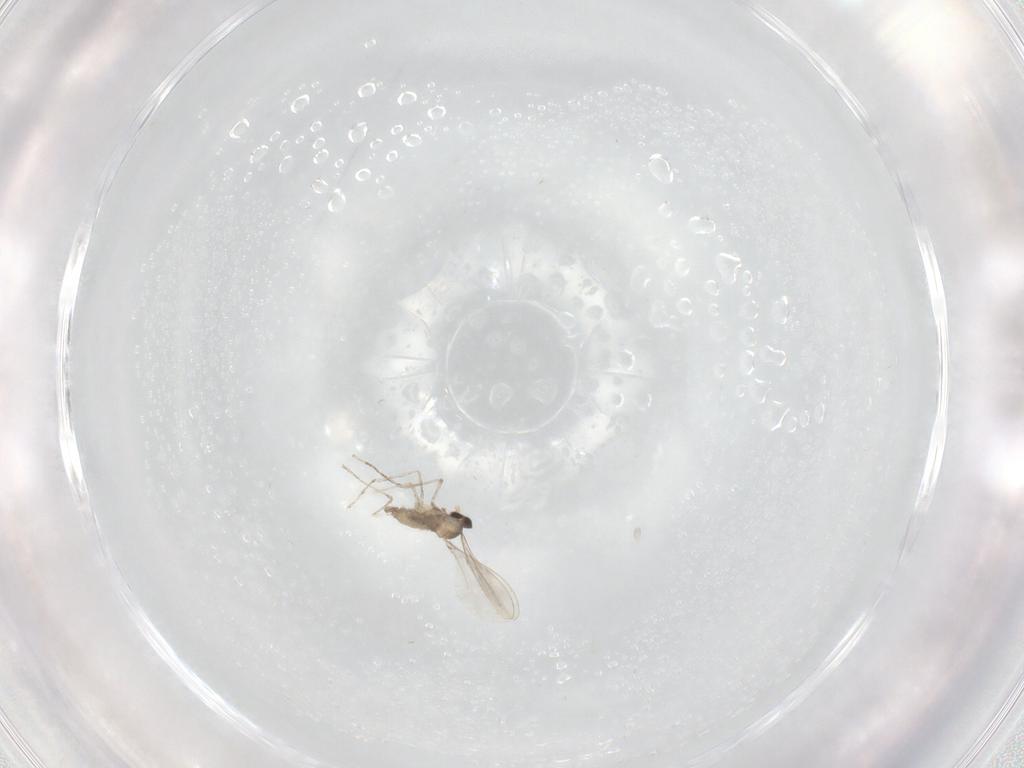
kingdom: Animalia
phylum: Arthropoda
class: Insecta
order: Diptera
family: Cecidomyiidae
